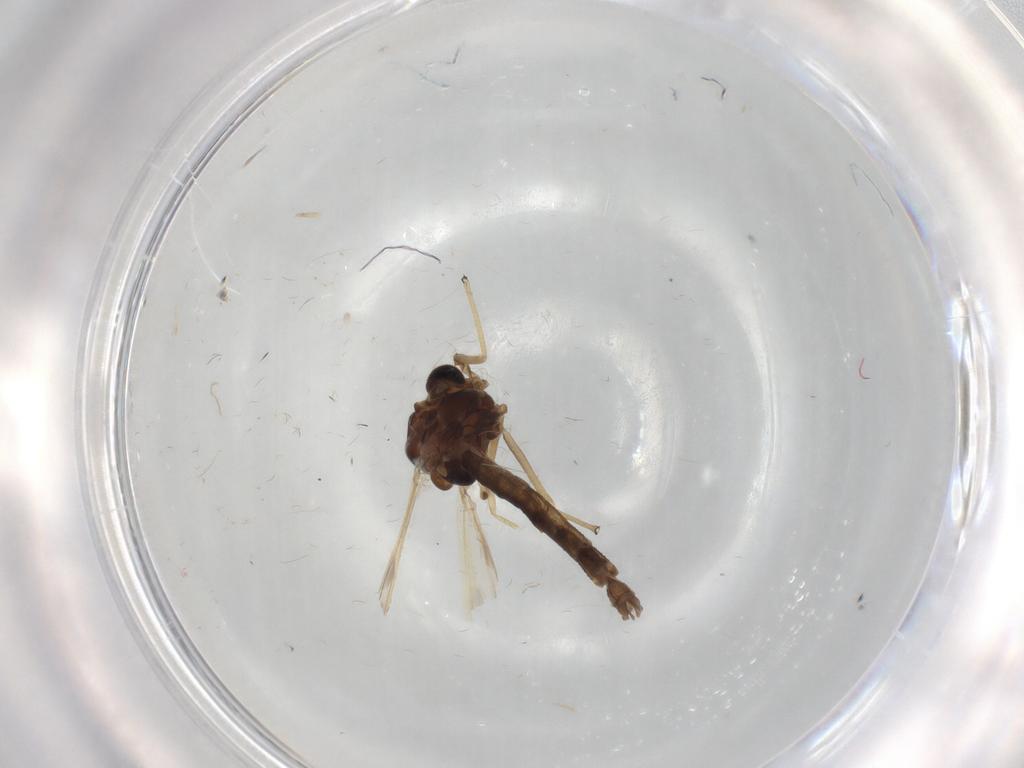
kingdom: Animalia
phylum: Arthropoda
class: Insecta
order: Diptera
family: Chironomidae
